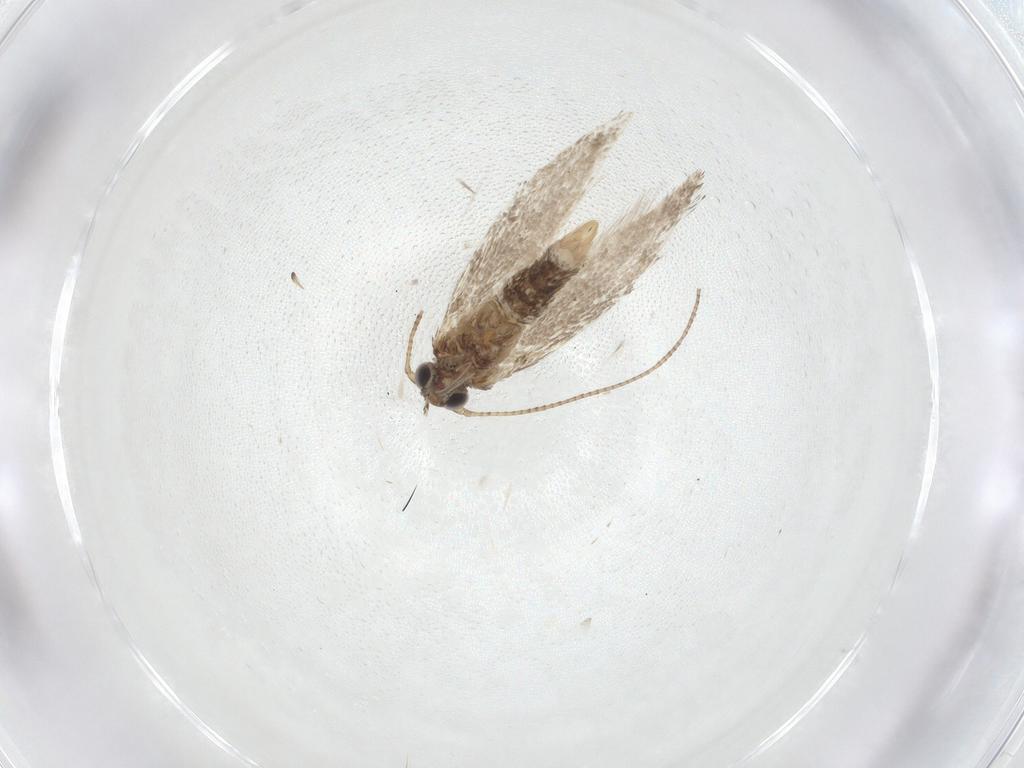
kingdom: Animalia
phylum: Arthropoda
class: Insecta
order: Lepidoptera
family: Gracillariidae
